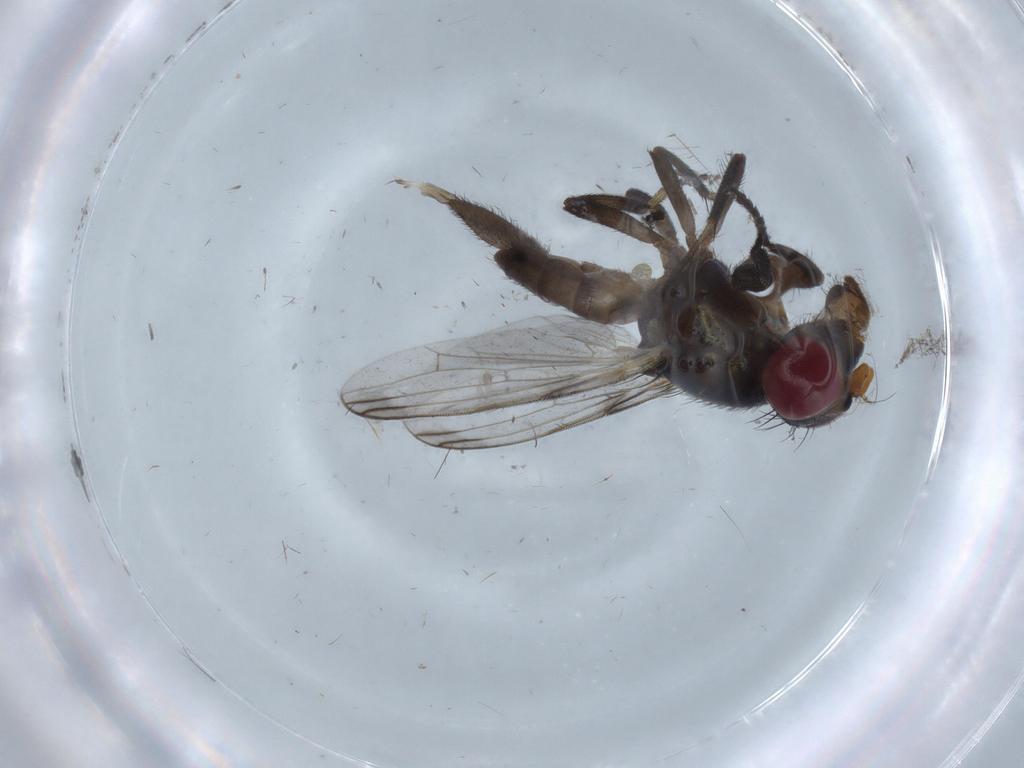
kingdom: Animalia
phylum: Arthropoda
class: Insecta
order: Diptera
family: Ulidiidae
